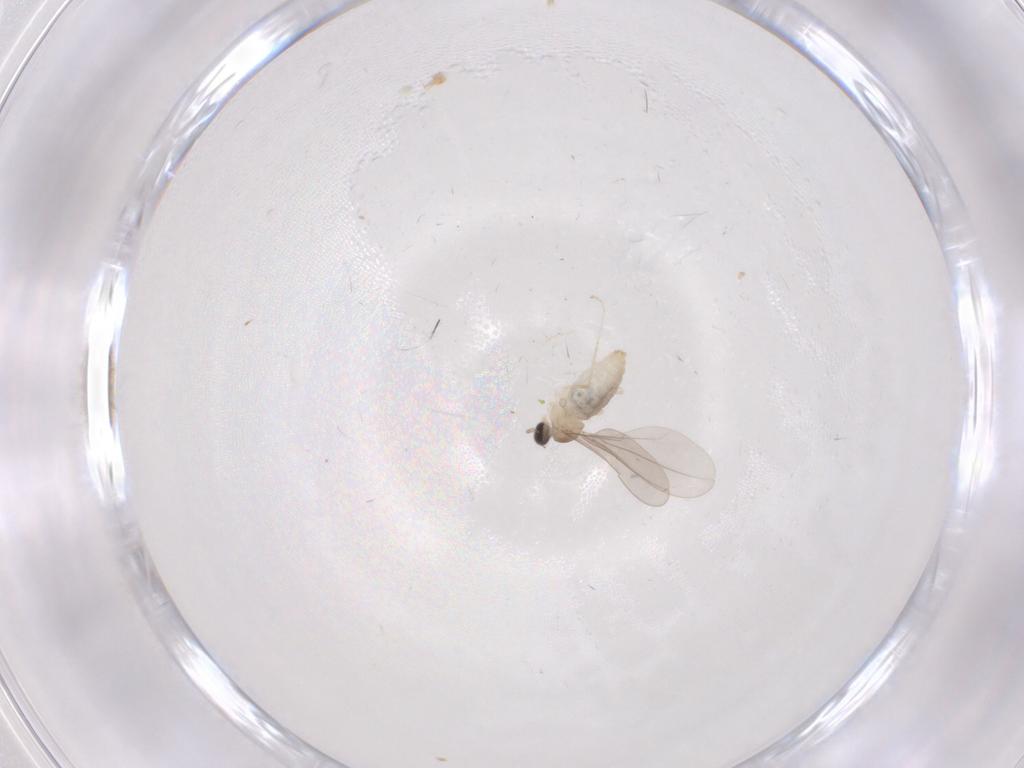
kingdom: Animalia
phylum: Arthropoda
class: Insecta
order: Diptera
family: Cecidomyiidae
